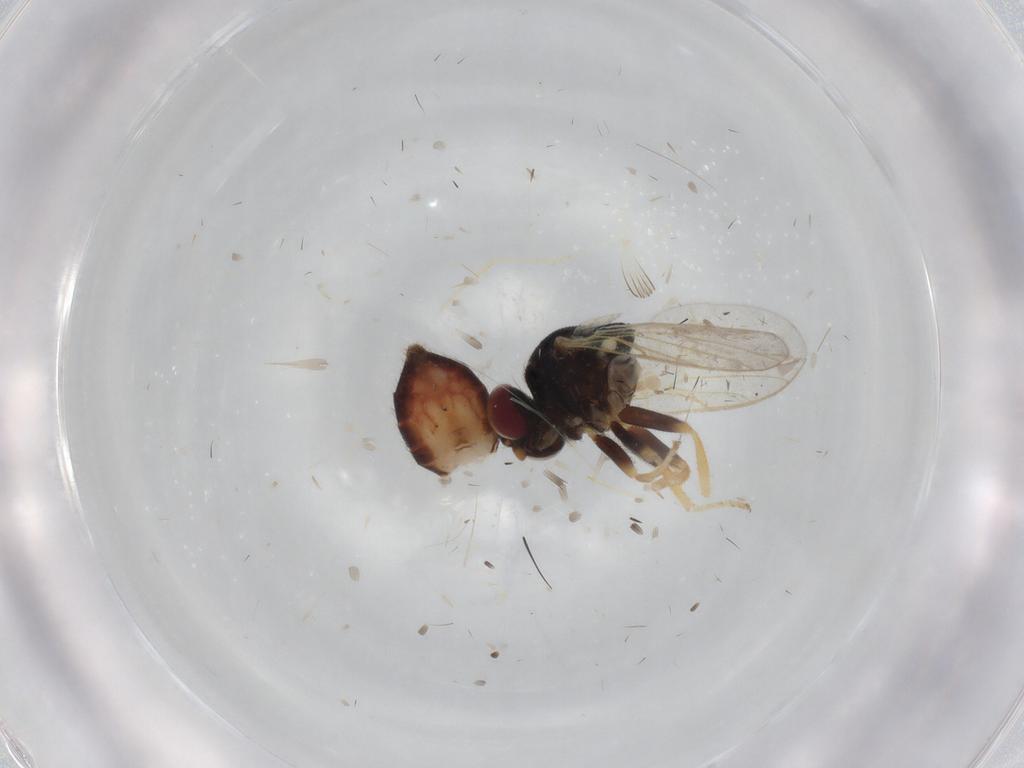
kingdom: Animalia
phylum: Arthropoda
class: Insecta
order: Diptera
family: Chloropidae
